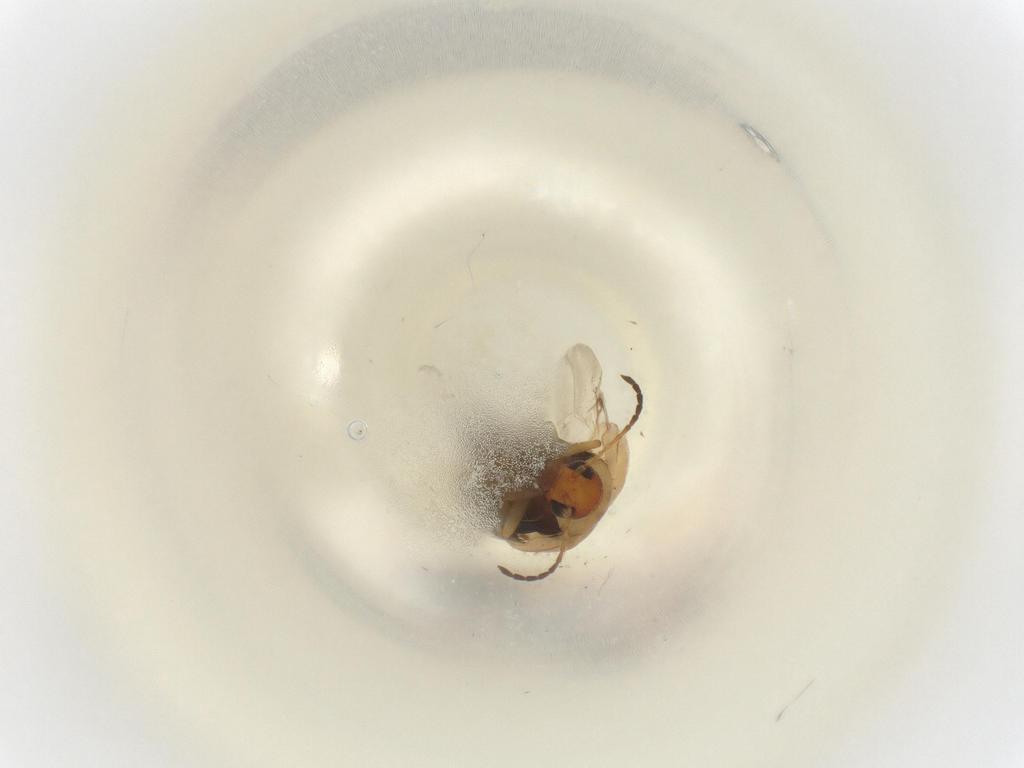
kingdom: Animalia
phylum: Arthropoda
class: Insecta
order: Coleoptera
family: Chrysomelidae
